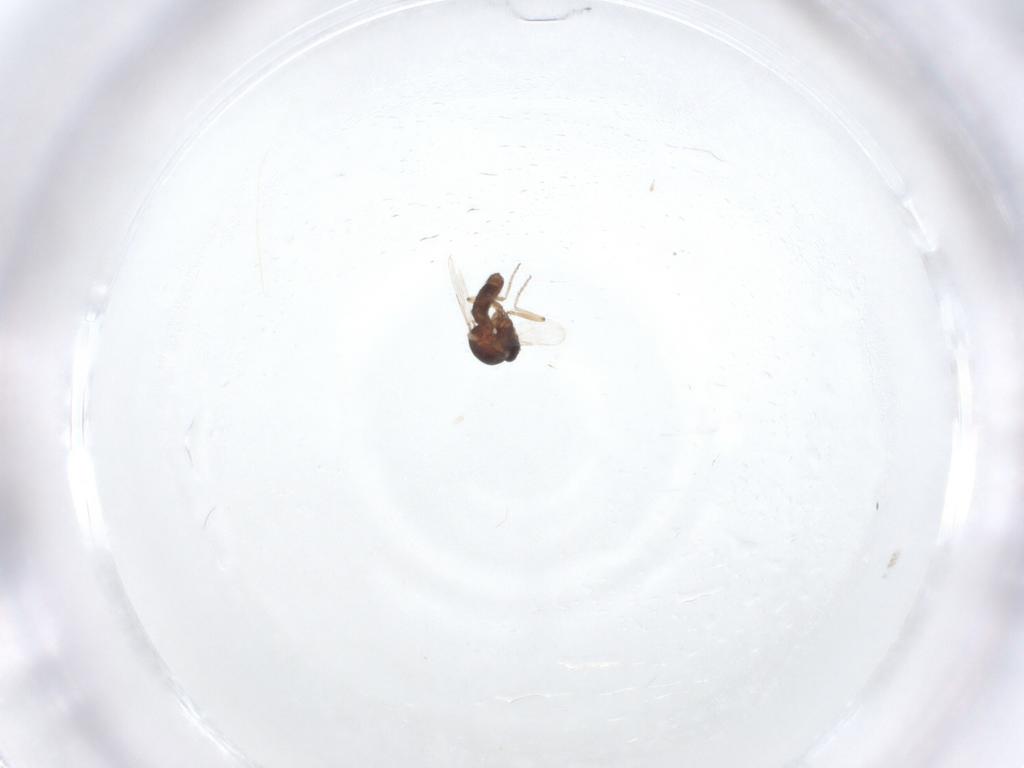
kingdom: Animalia
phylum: Arthropoda
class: Insecta
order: Diptera
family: Ceratopogonidae
